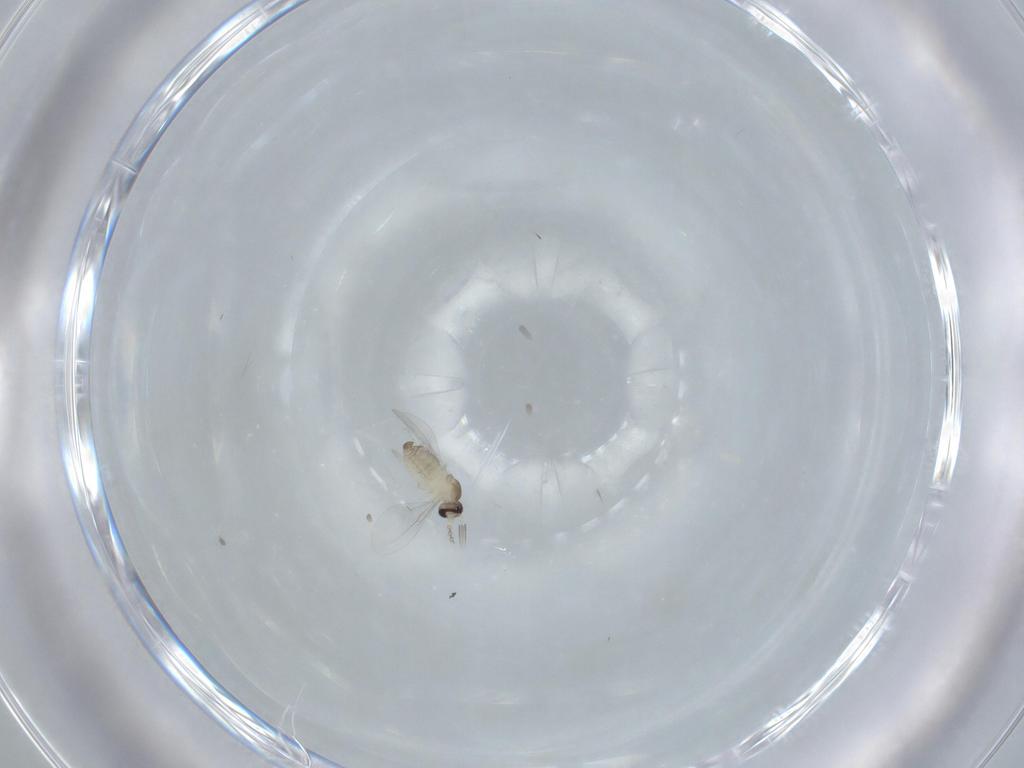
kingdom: Animalia
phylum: Arthropoda
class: Insecta
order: Diptera
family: Cecidomyiidae
